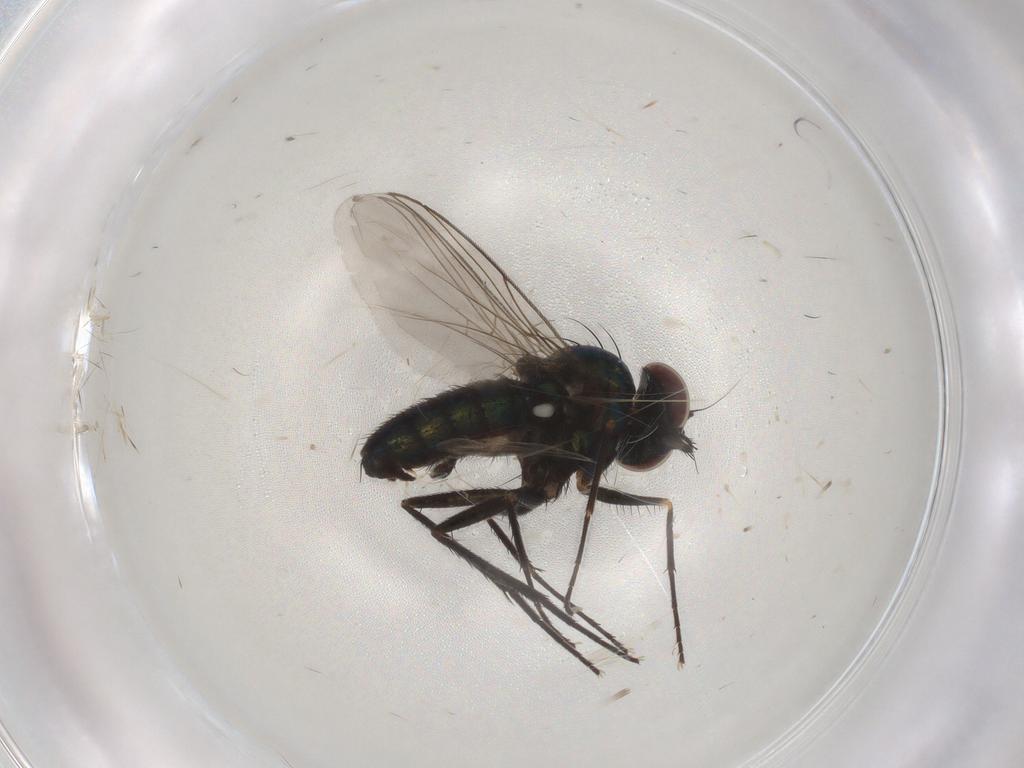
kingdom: Animalia
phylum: Arthropoda
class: Insecta
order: Diptera
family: Dolichopodidae
